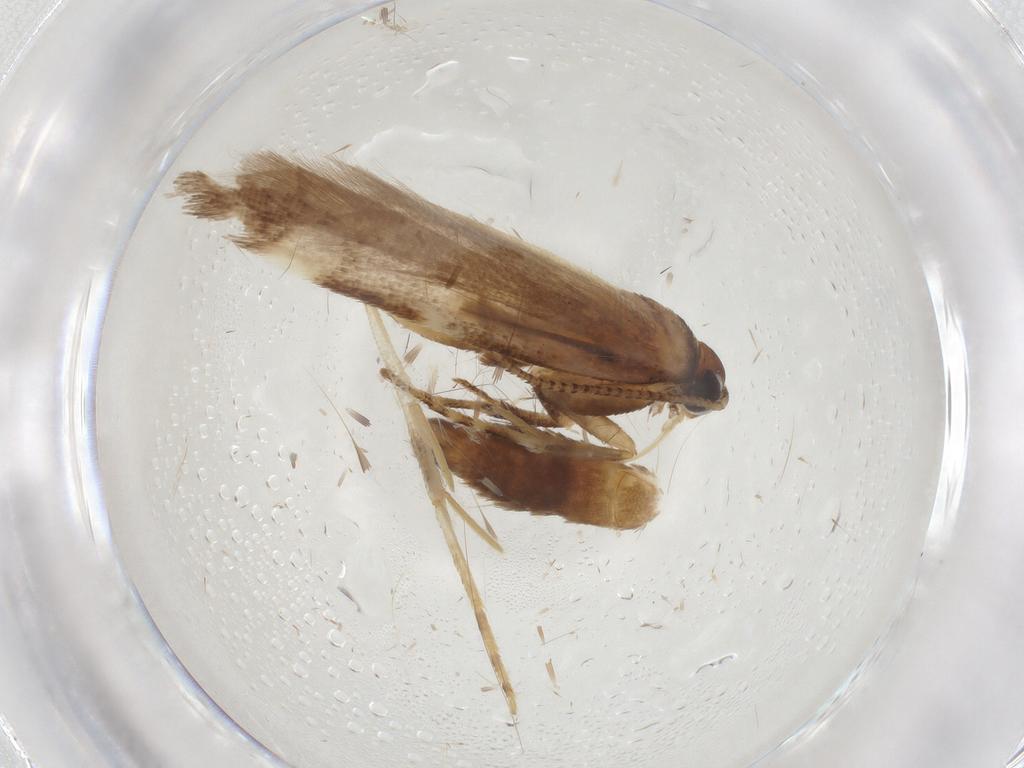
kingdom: Animalia
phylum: Arthropoda
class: Insecta
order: Lepidoptera
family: Gelechiidae
